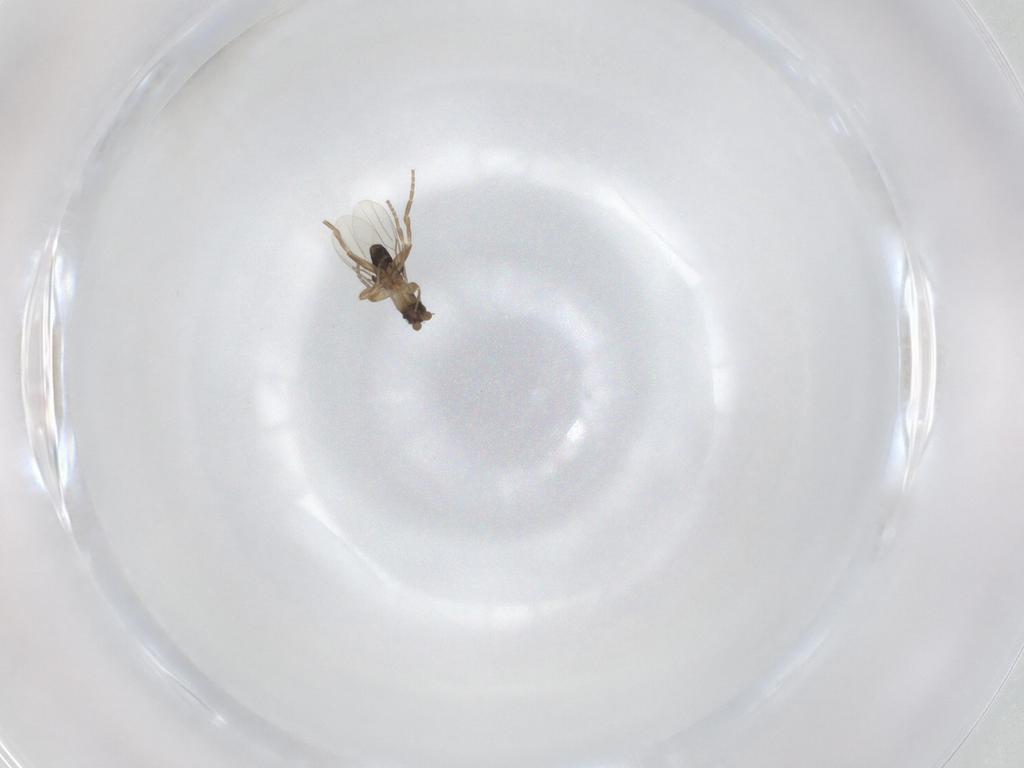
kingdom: Animalia
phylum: Arthropoda
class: Insecta
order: Diptera
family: Phoridae
